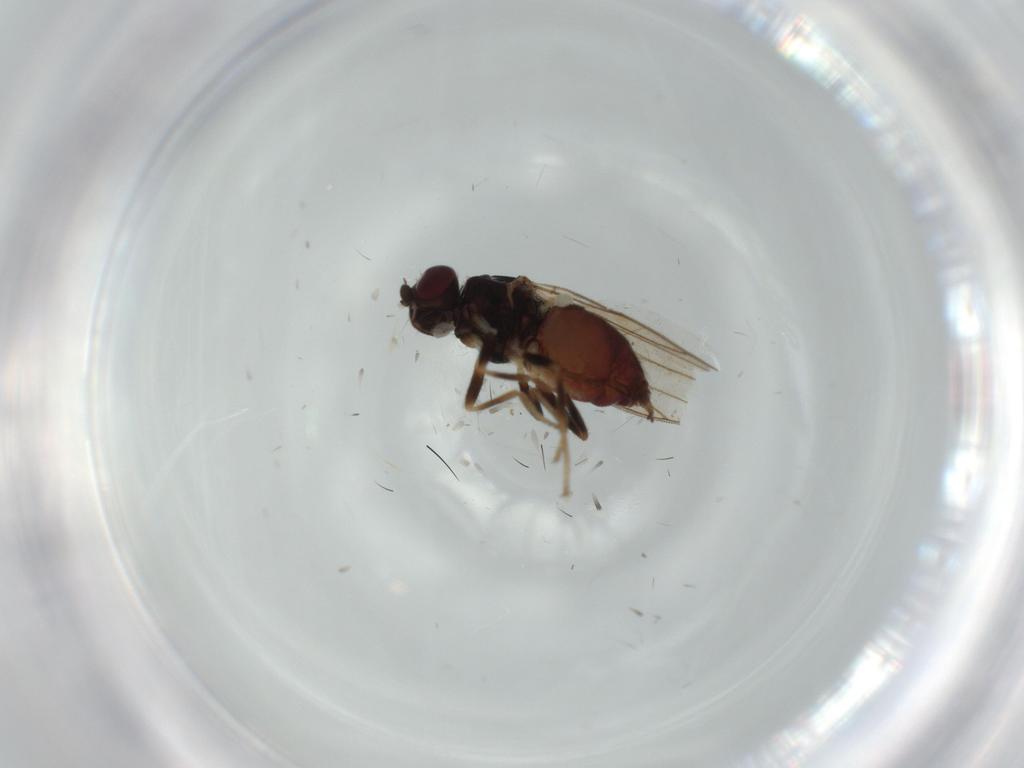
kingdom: Animalia
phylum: Arthropoda
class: Insecta
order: Diptera
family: Chloropidae
